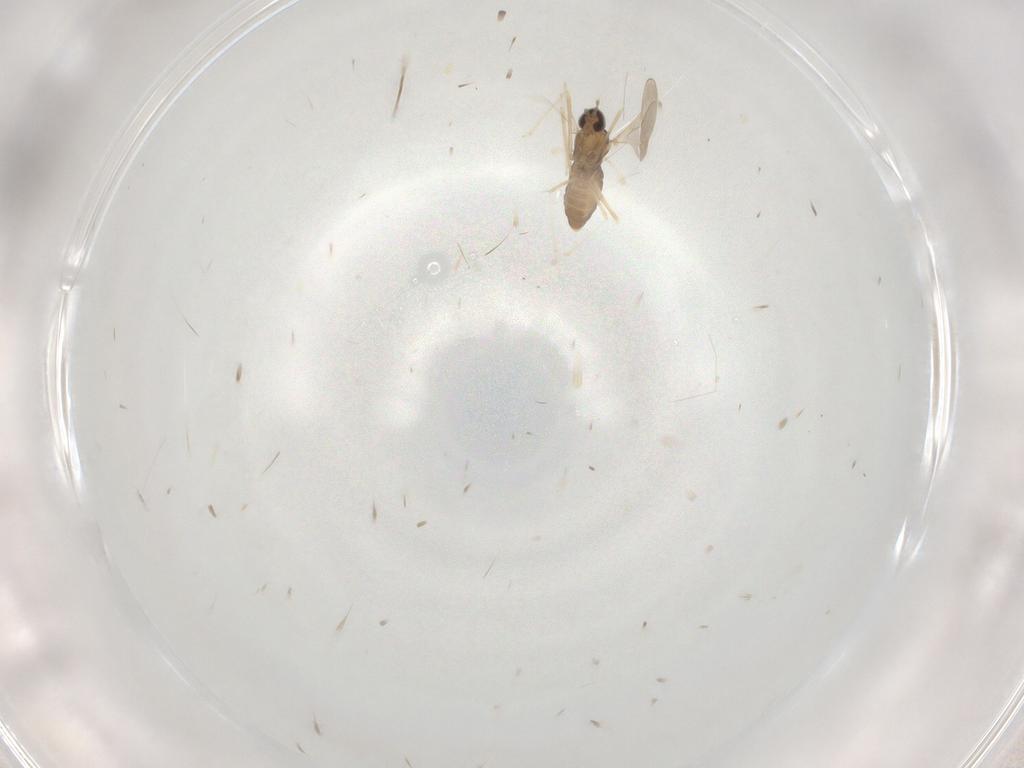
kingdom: Animalia
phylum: Arthropoda
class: Insecta
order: Diptera
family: Cecidomyiidae
